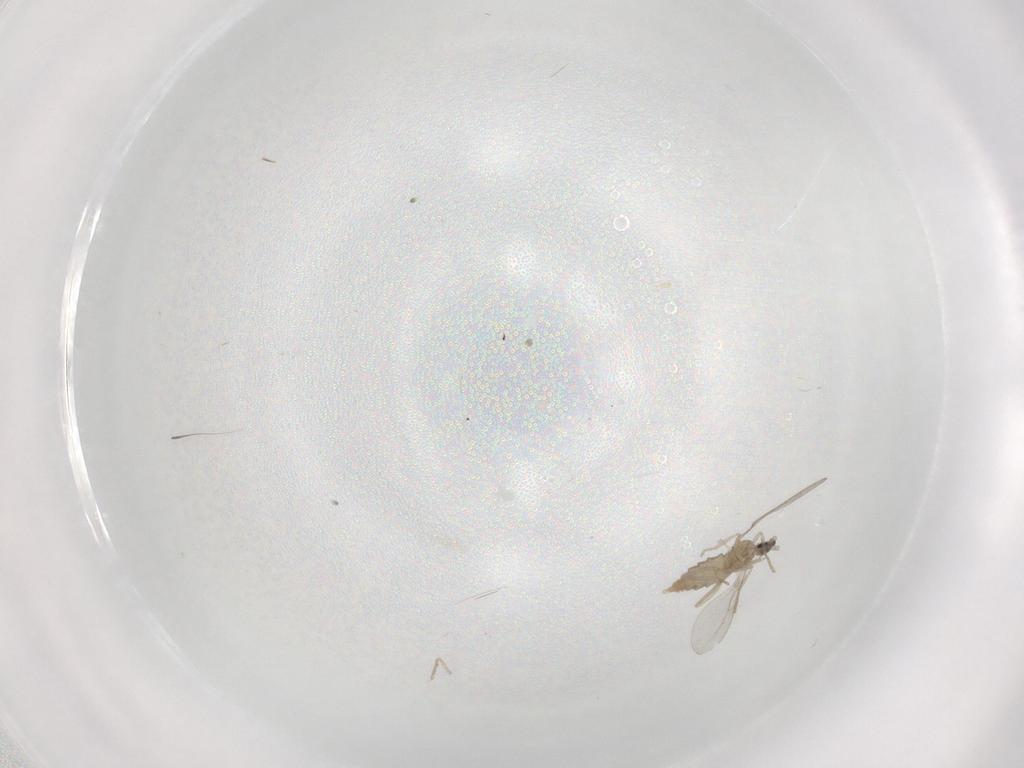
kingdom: Animalia
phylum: Arthropoda
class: Insecta
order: Diptera
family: Cecidomyiidae
